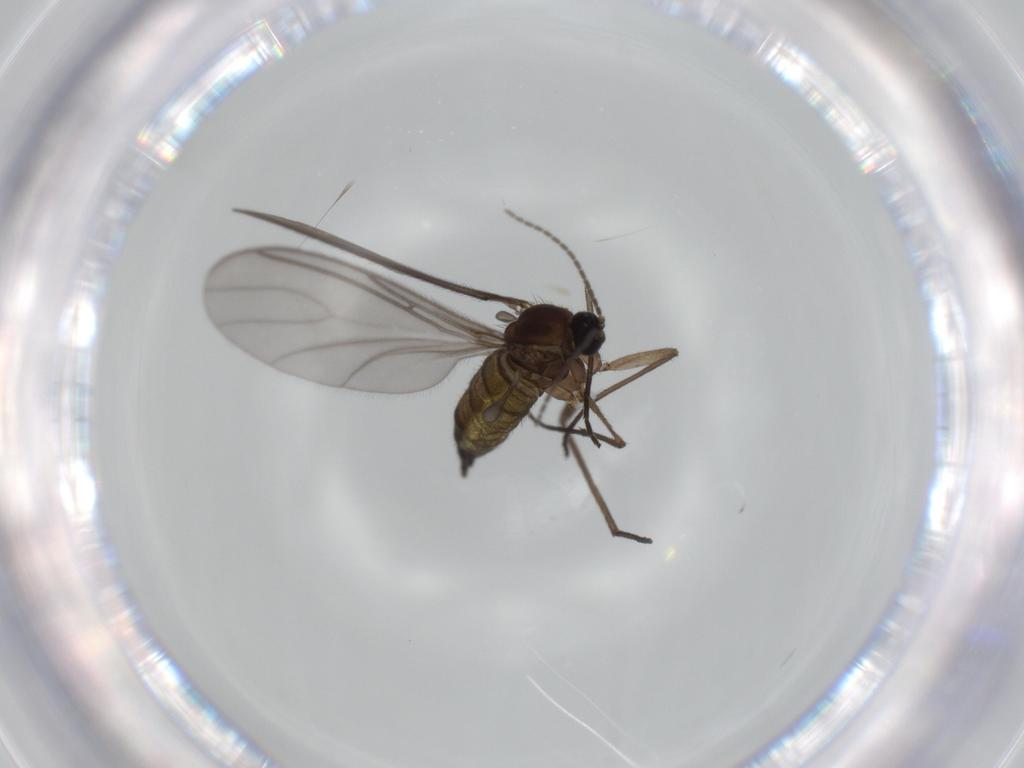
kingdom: Animalia
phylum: Arthropoda
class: Insecta
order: Diptera
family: Sciaridae
